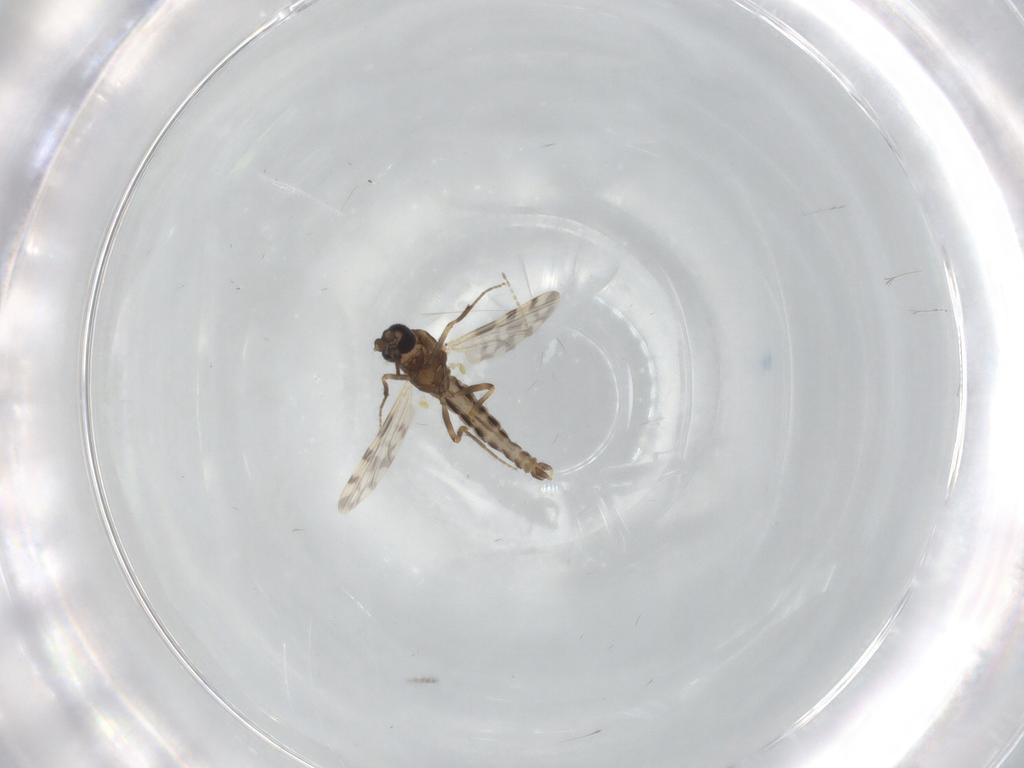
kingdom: Animalia
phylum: Arthropoda
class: Insecta
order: Diptera
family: Ceratopogonidae
